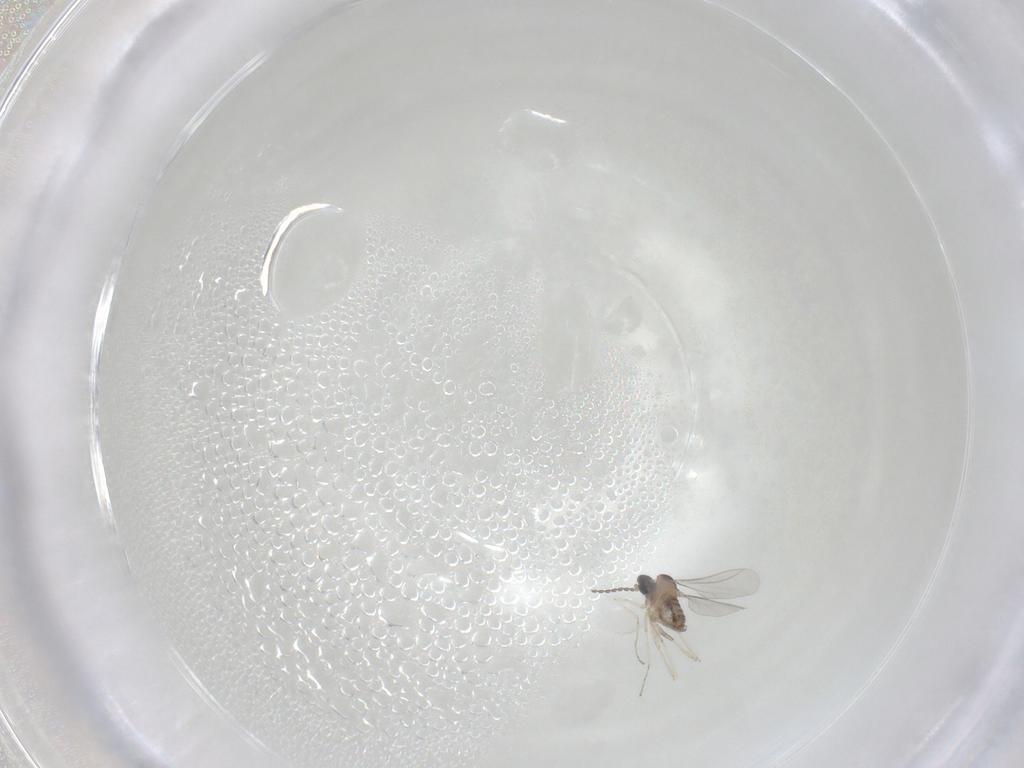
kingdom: Animalia
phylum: Arthropoda
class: Insecta
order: Diptera
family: Cecidomyiidae
